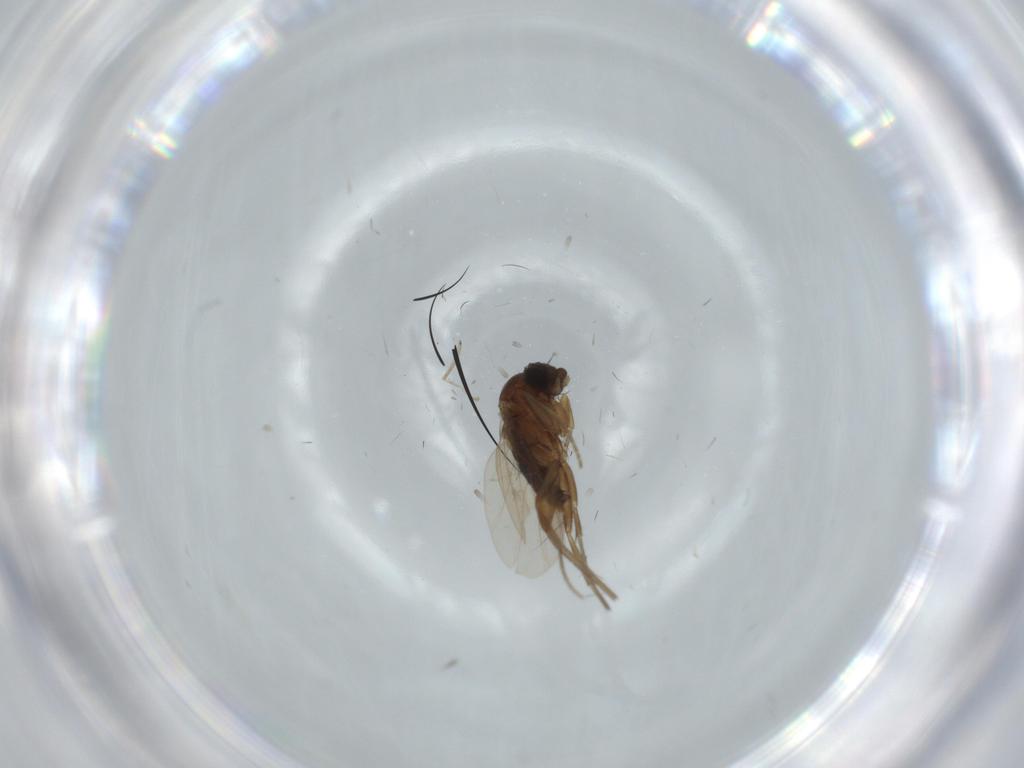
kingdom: Animalia
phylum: Arthropoda
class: Insecta
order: Diptera
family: Phoridae
